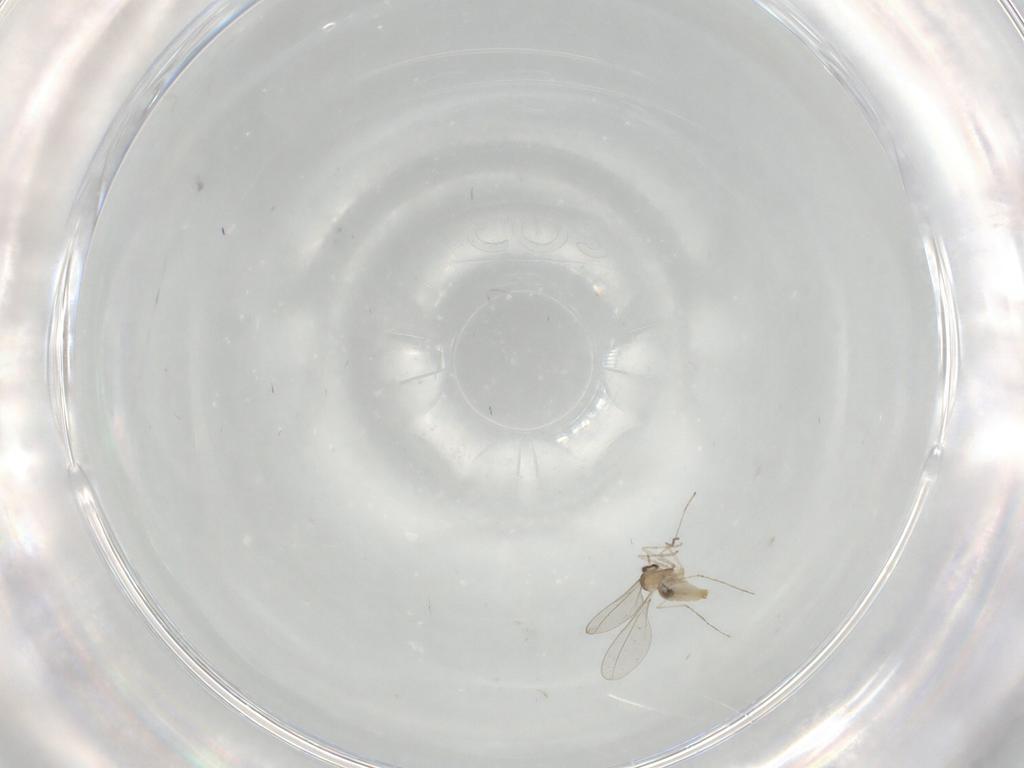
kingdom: Animalia
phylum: Arthropoda
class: Insecta
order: Diptera
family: Cecidomyiidae
